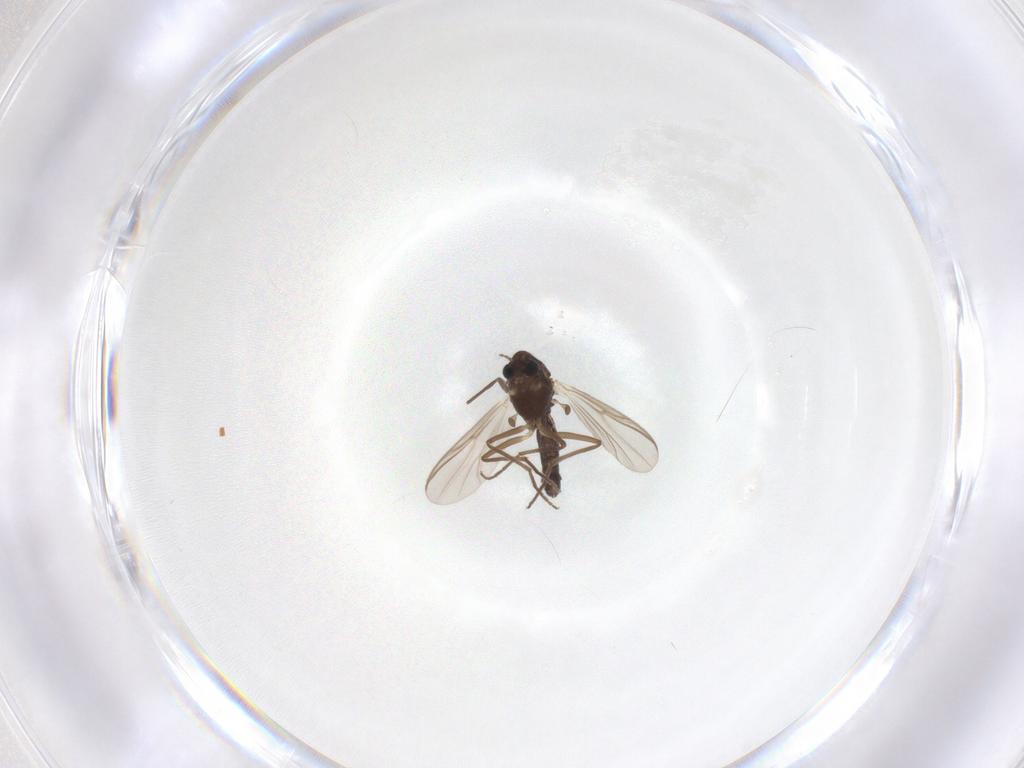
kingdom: Animalia
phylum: Arthropoda
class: Insecta
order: Diptera
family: Chironomidae
